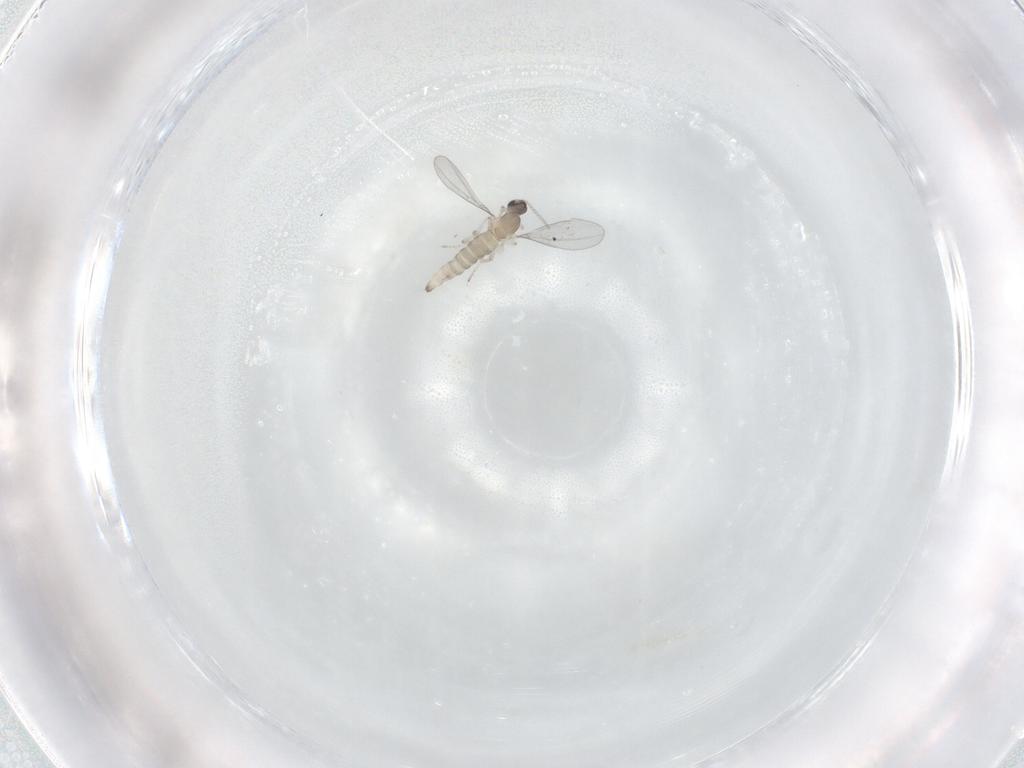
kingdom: Animalia
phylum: Arthropoda
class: Insecta
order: Diptera
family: Cecidomyiidae
